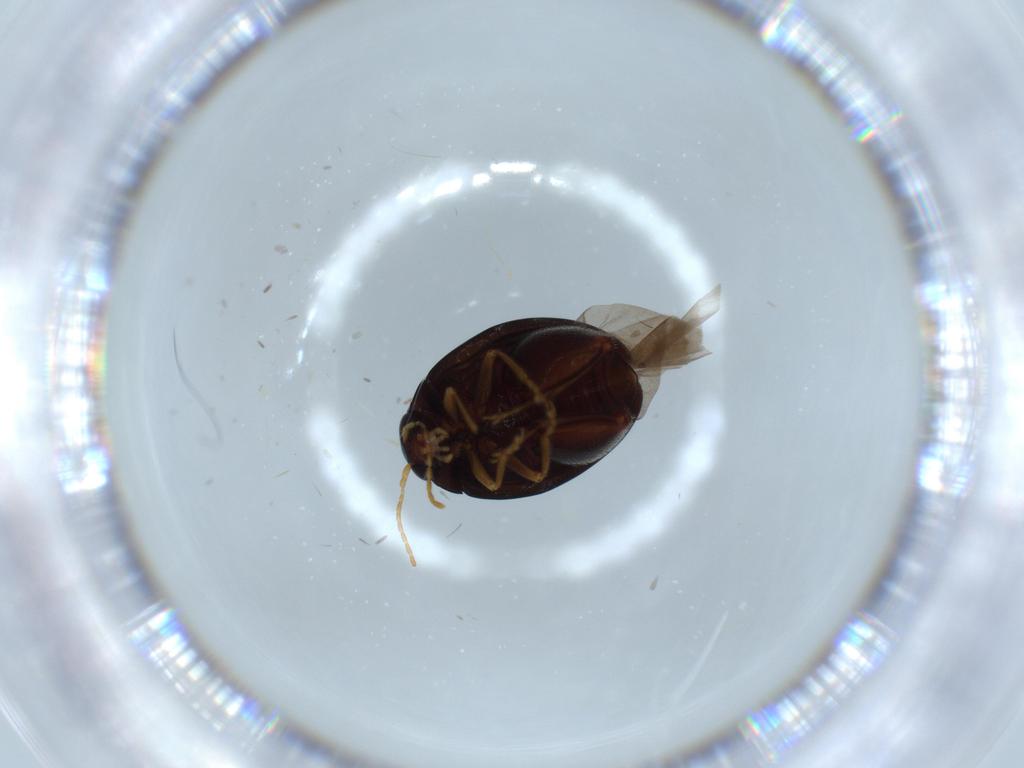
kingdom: Animalia
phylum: Arthropoda
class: Insecta
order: Coleoptera
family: Chrysomelidae
